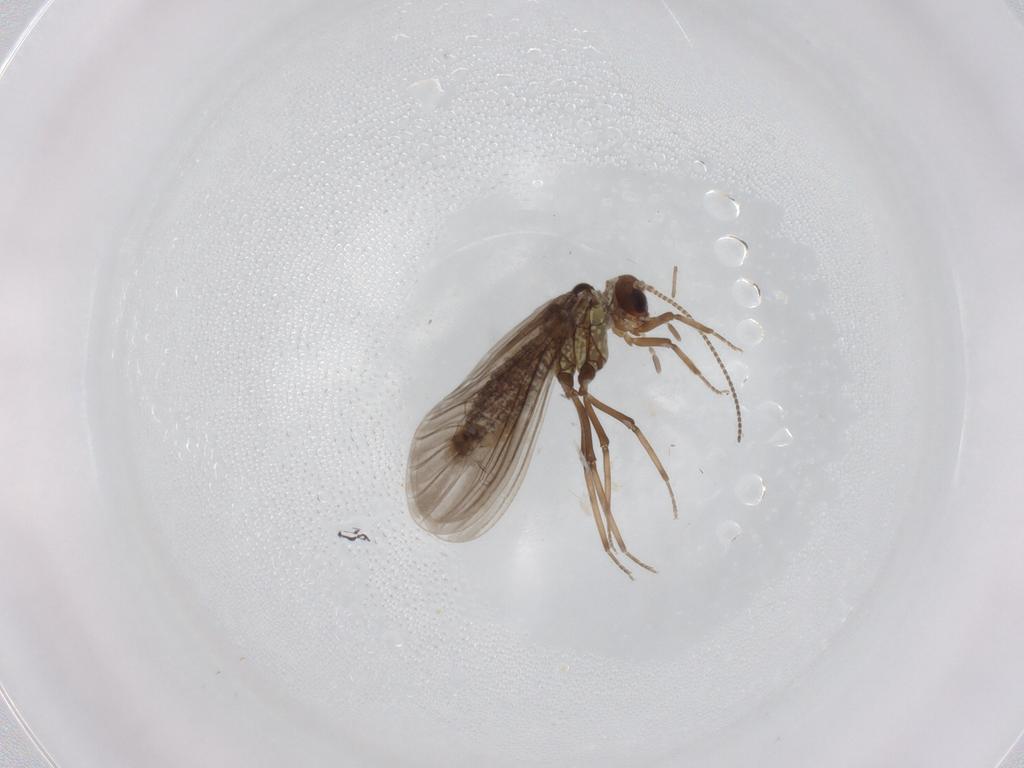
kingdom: Animalia
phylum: Arthropoda
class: Insecta
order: Neuroptera
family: Coniopterygidae
